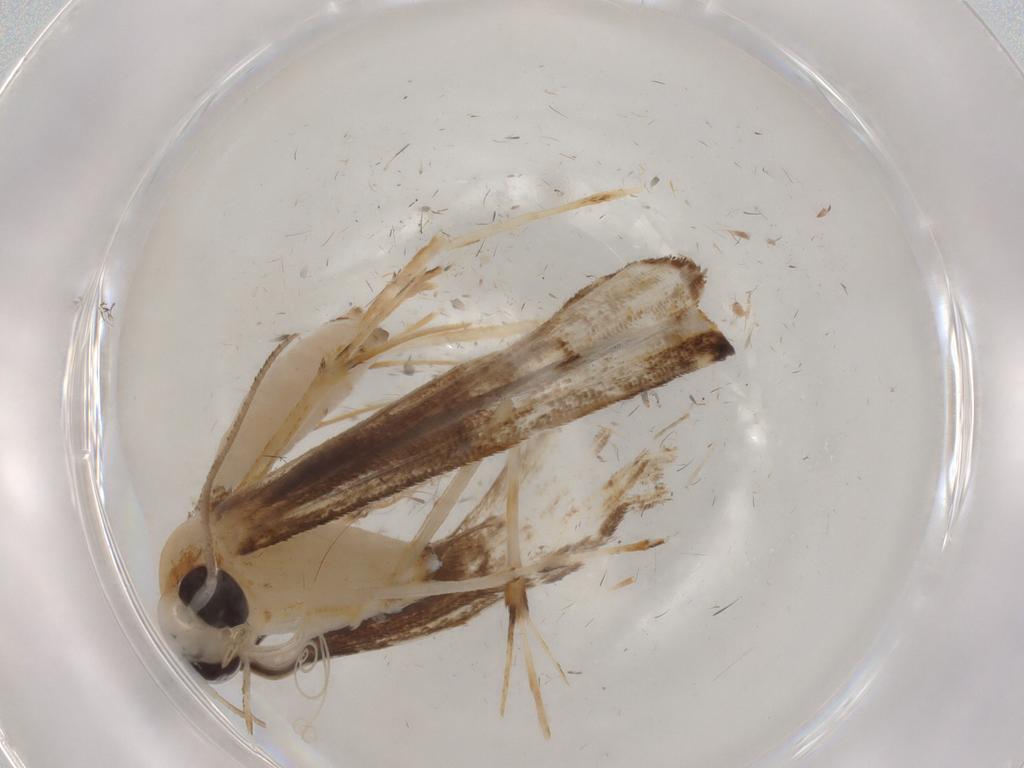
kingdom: Animalia
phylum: Arthropoda
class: Insecta
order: Lepidoptera
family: Pterophoridae
